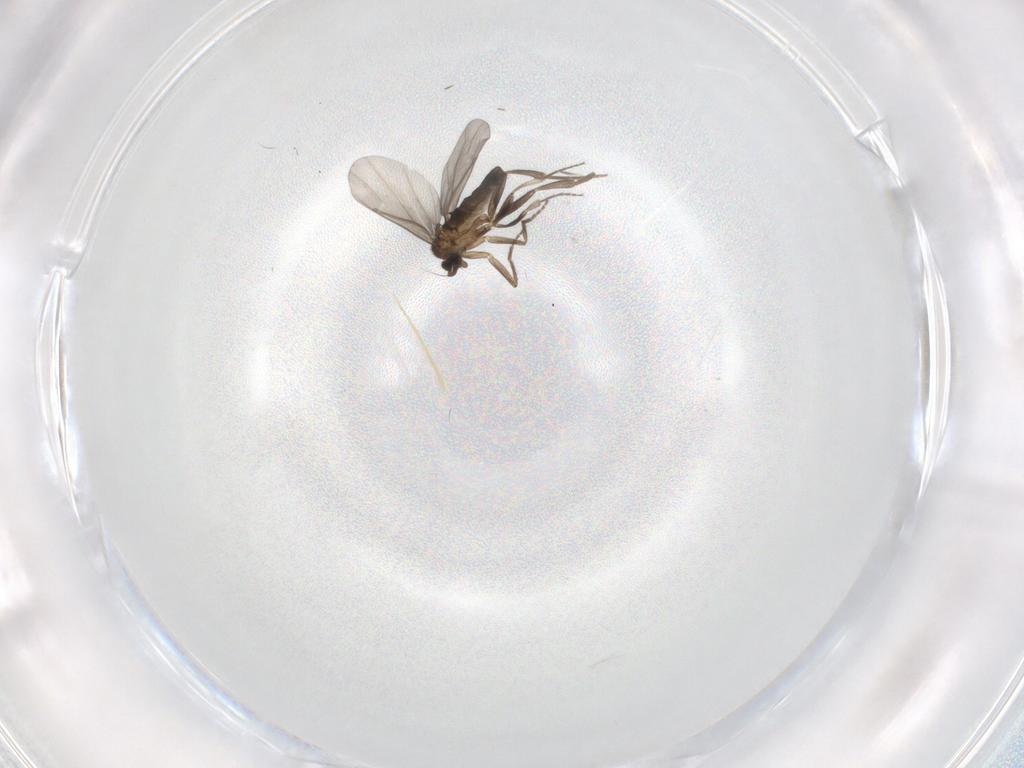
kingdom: Animalia
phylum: Arthropoda
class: Insecta
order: Diptera
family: Phoridae
